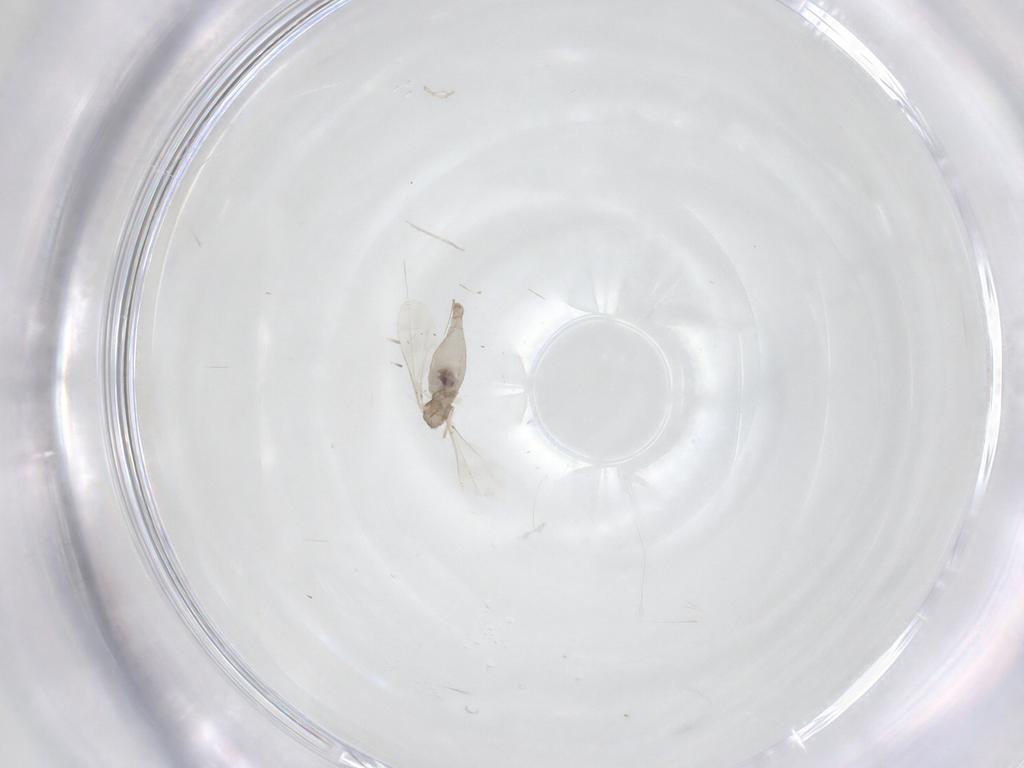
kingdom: Animalia
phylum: Arthropoda
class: Insecta
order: Diptera
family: Cecidomyiidae
